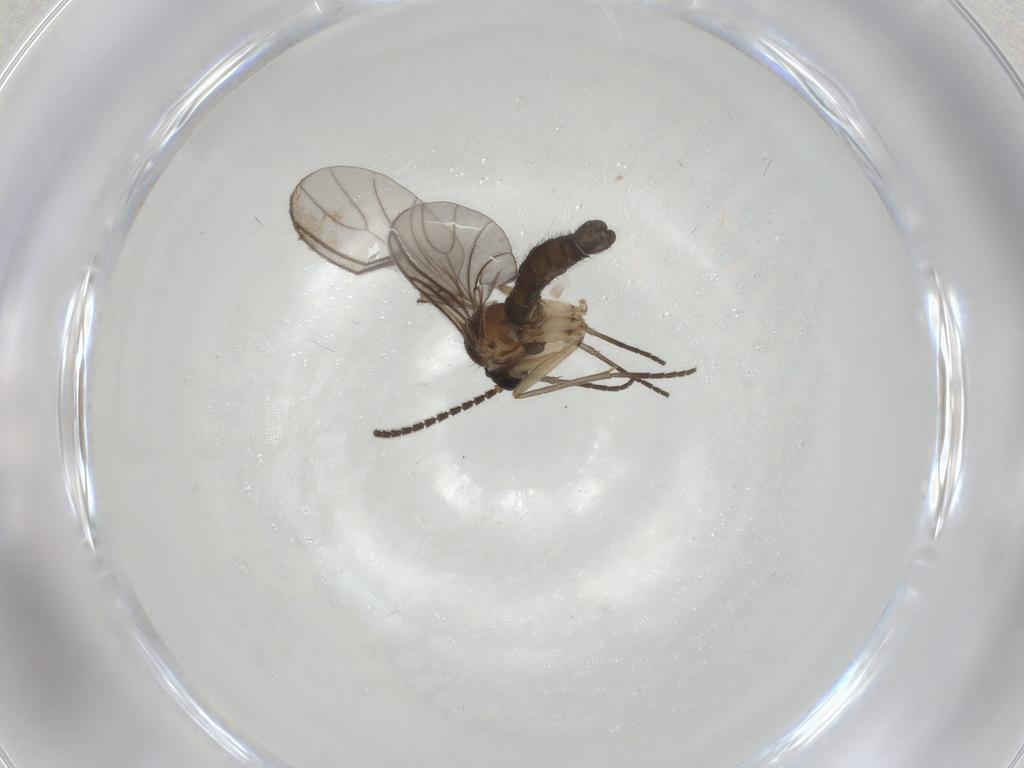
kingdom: Animalia
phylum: Arthropoda
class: Insecta
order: Diptera
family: Sciaridae
